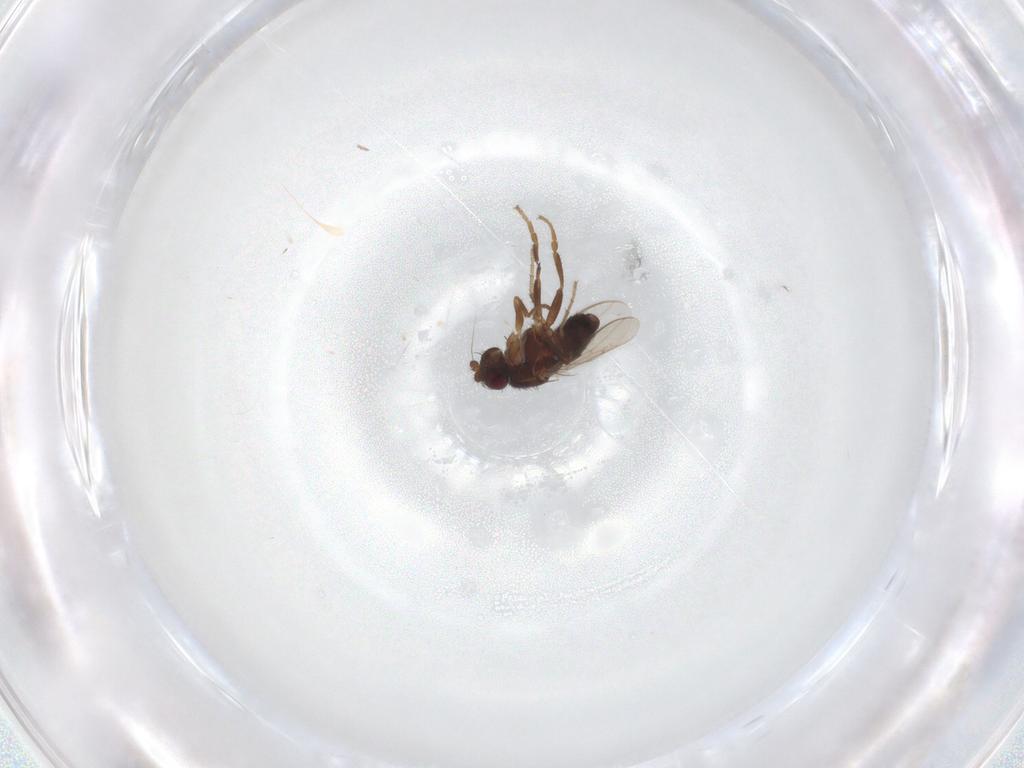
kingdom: Animalia
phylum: Arthropoda
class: Insecta
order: Diptera
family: Sphaeroceridae
